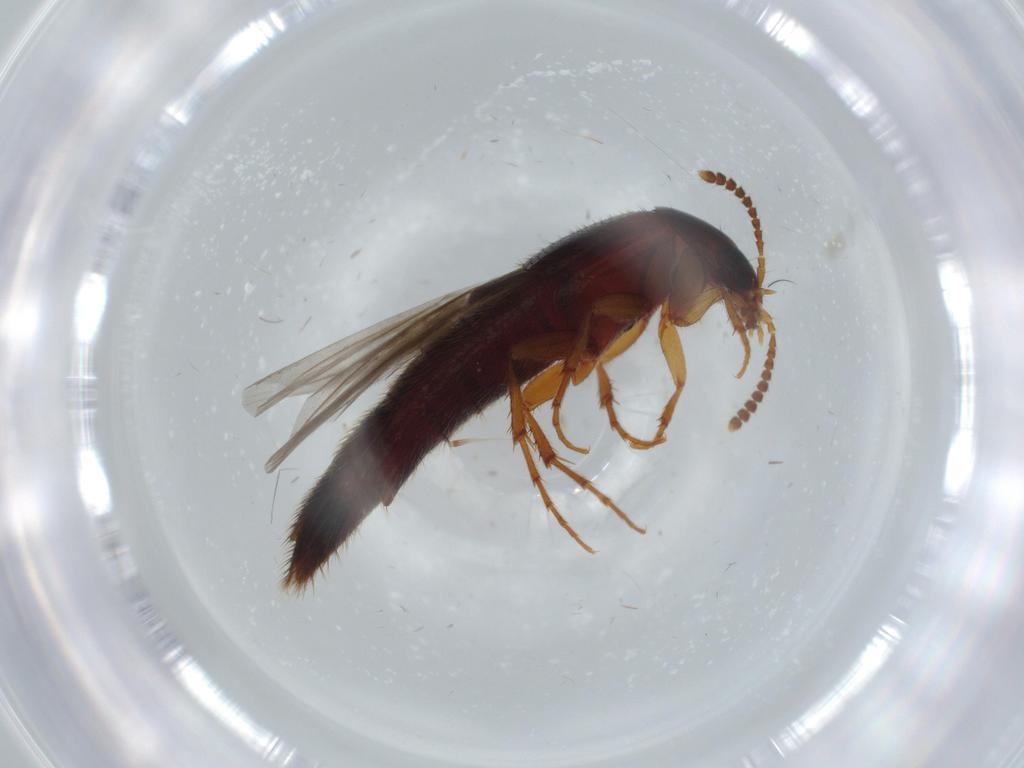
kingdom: Animalia
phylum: Arthropoda
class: Insecta
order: Coleoptera
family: Staphylinidae
